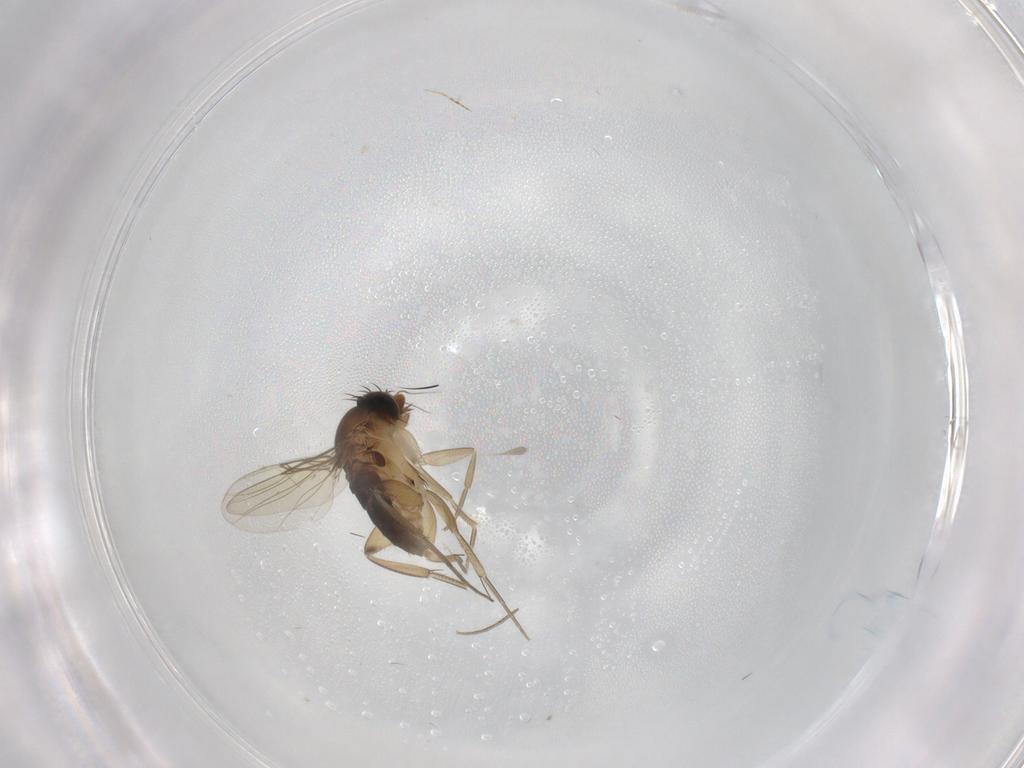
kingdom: Animalia
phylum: Arthropoda
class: Insecta
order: Diptera
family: Phoridae
